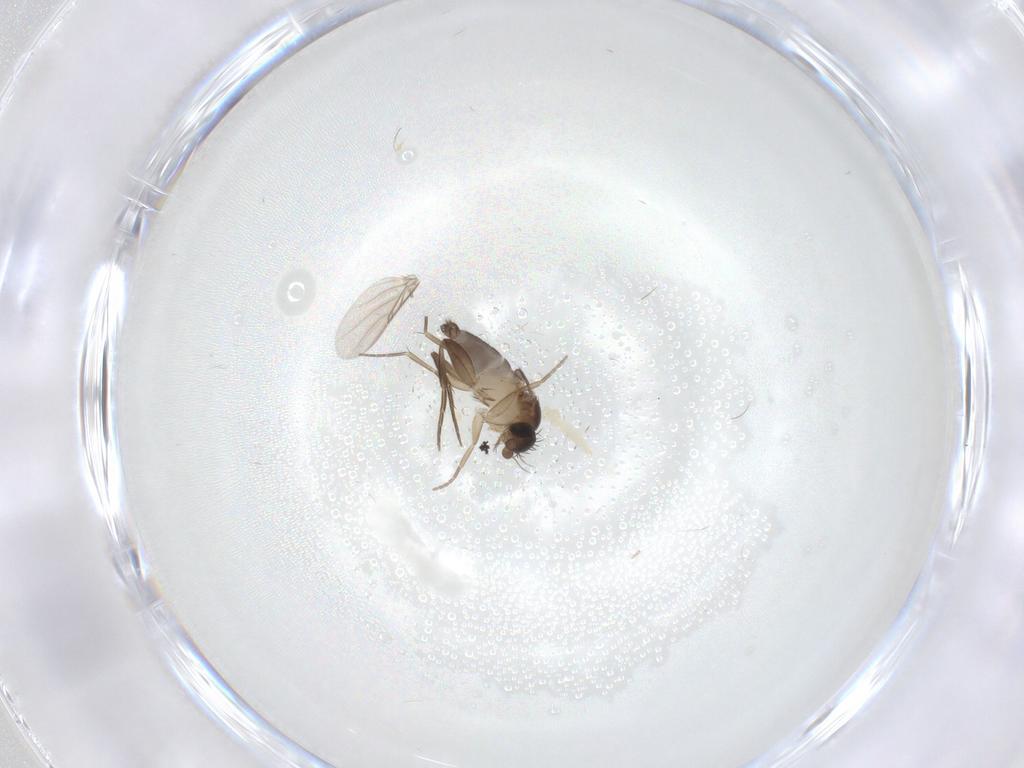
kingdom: Animalia
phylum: Arthropoda
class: Insecta
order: Diptera
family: Phoridae
